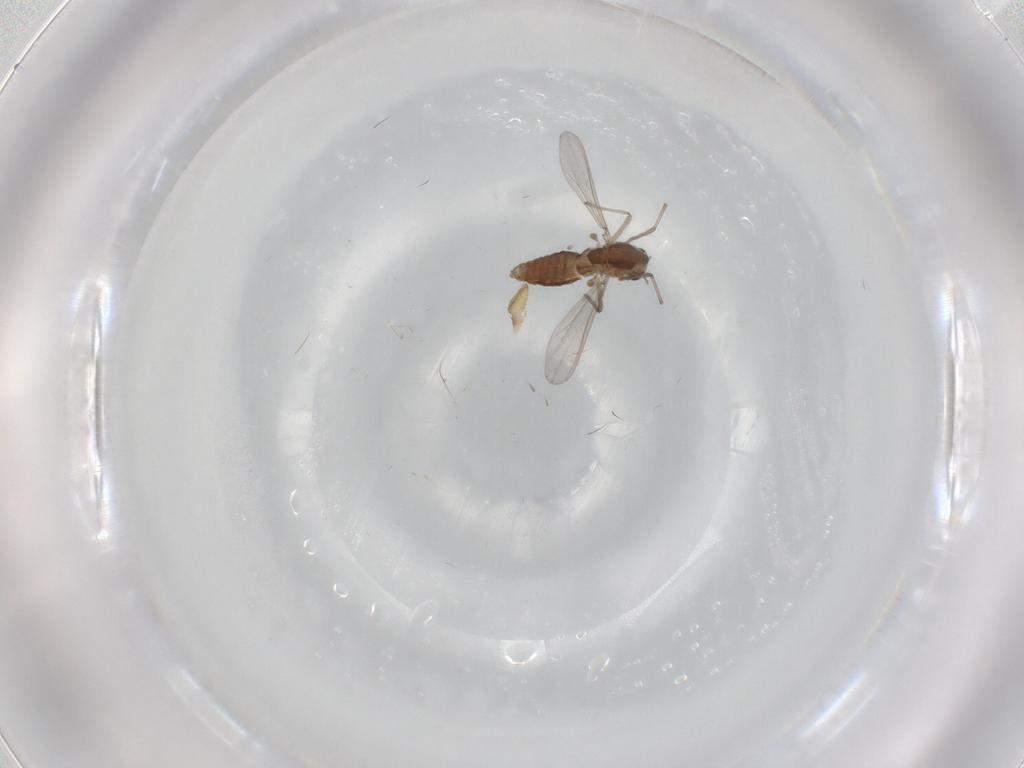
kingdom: Animalia
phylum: Arthropoda
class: Insecta
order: Diptera
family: Chironomidae
